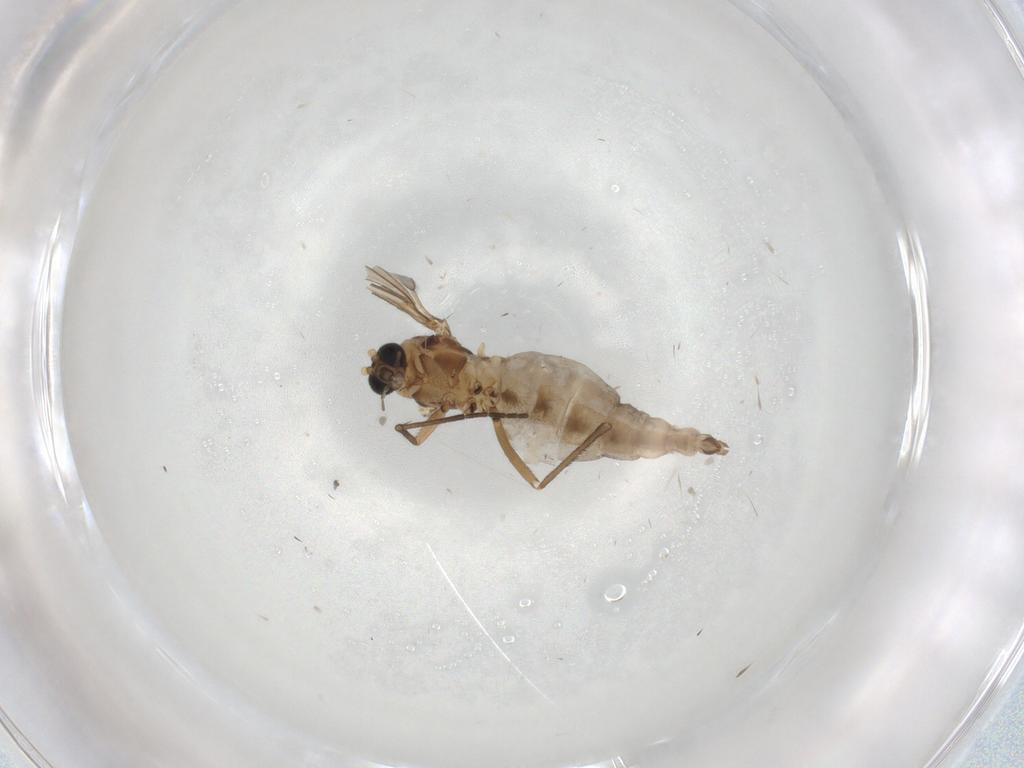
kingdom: Animalia
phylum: Arthropoda
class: Insecta
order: Diptera
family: Sciaridae
